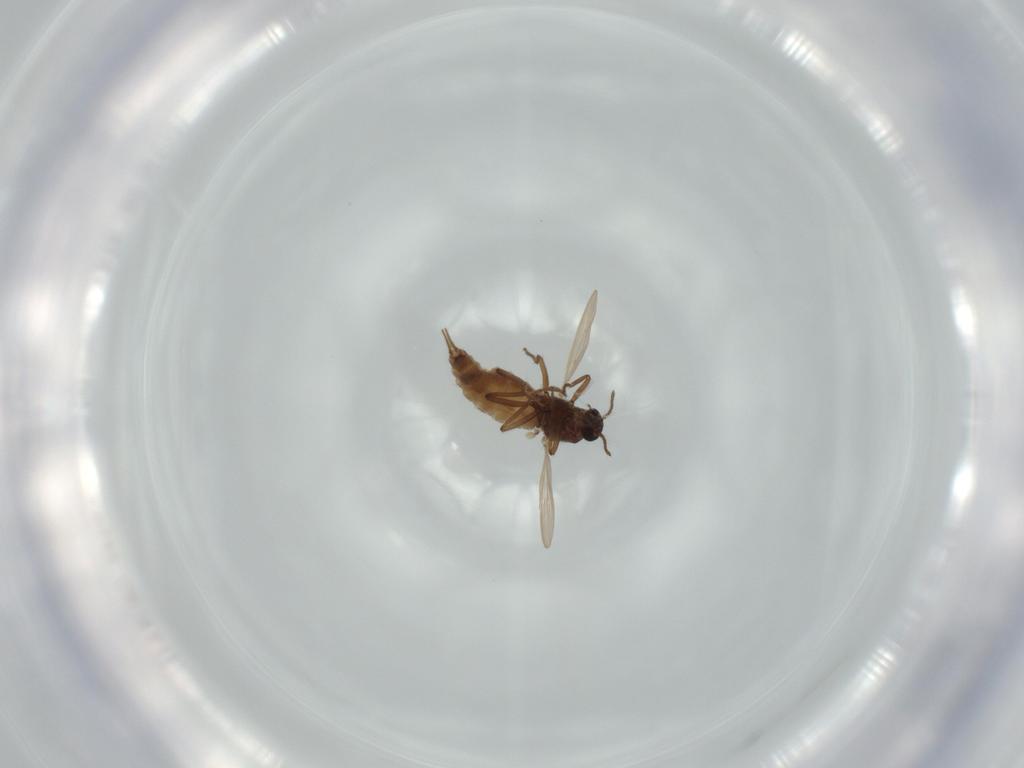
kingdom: Animalia
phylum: Arthropoda
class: Insecta
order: Diptera
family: Ceratopogonidae
